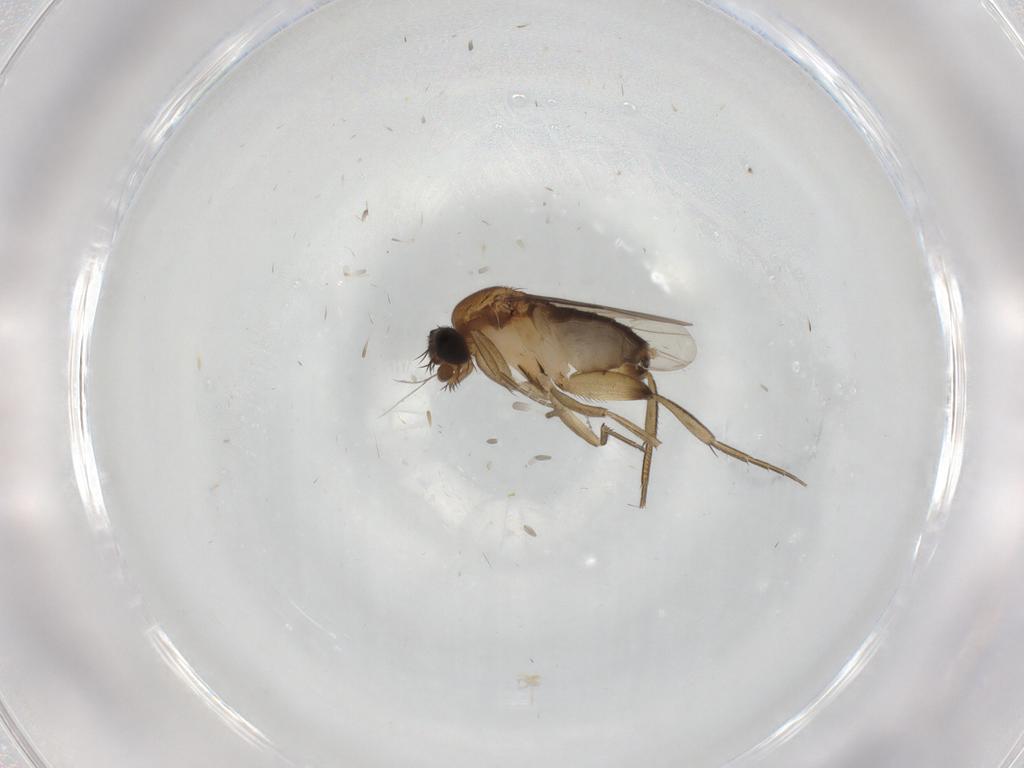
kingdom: Animalia
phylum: Arthropoda
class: Insecta
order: Diptera
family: Phoridae
